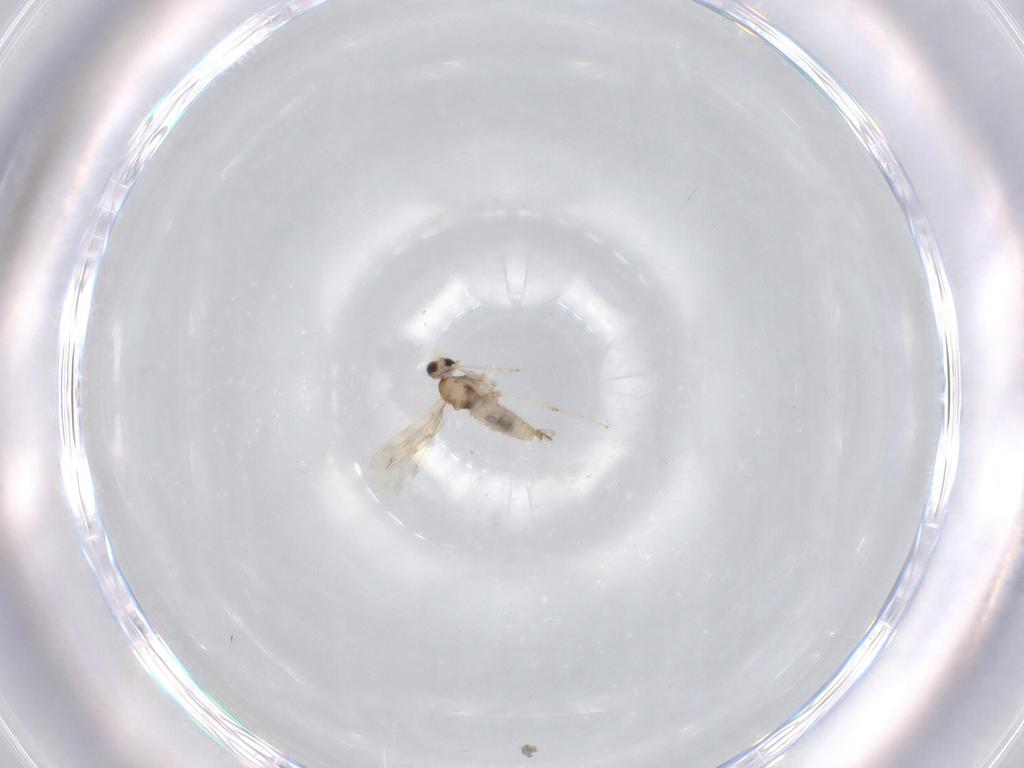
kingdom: Animalia
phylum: Arthropoda
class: Insecta
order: Diptera
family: Cecidomyiidae
